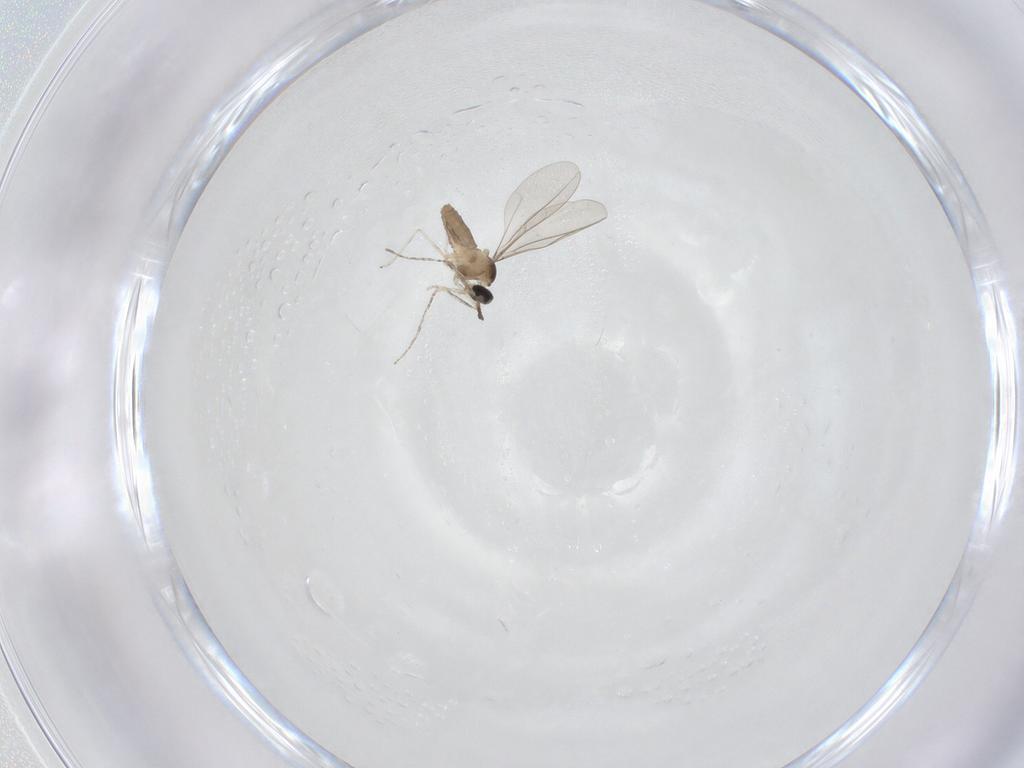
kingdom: Animalia
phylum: Arthropoda
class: Insecta
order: Diptera
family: Cecidomyiidae
